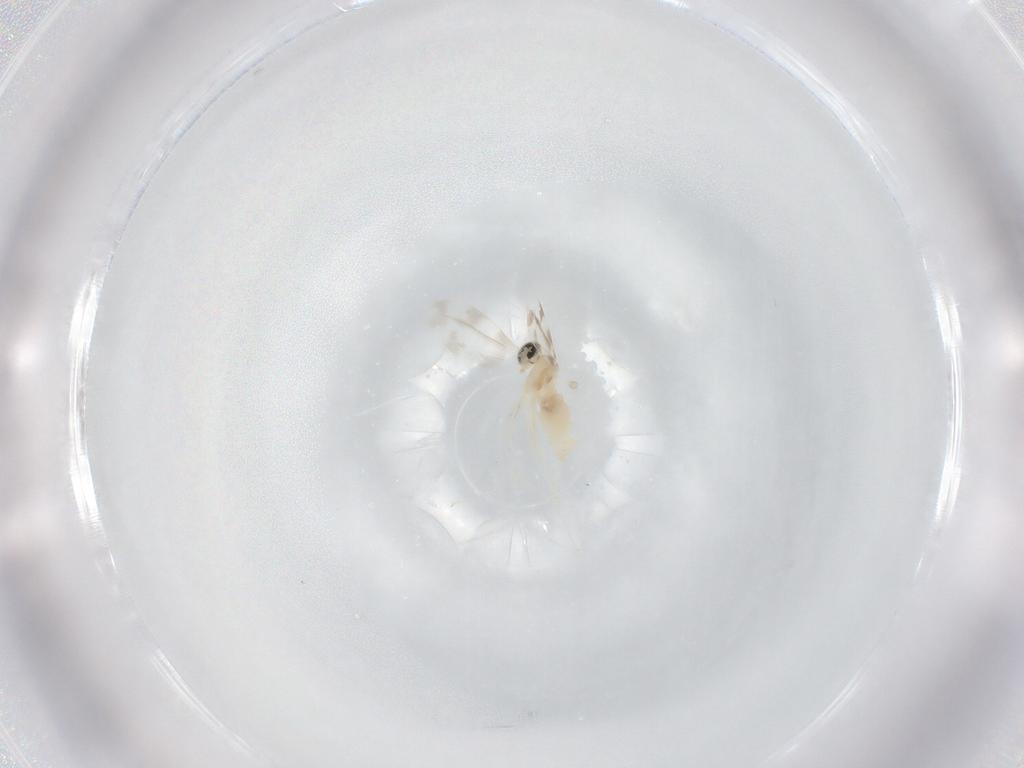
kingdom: Animalia
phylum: Arthropoda
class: Insecta
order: Diptera
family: Cecidomyiidae
